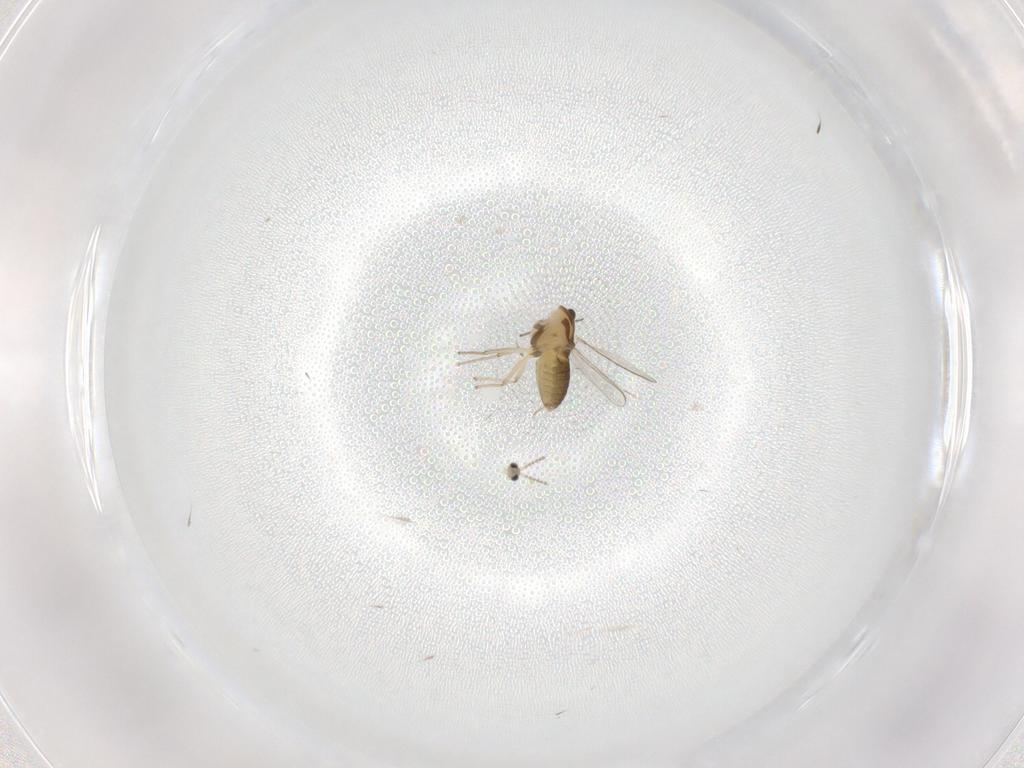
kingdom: Animalia
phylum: Arthropoda
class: Insecta
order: Diptera
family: Chironomidae
